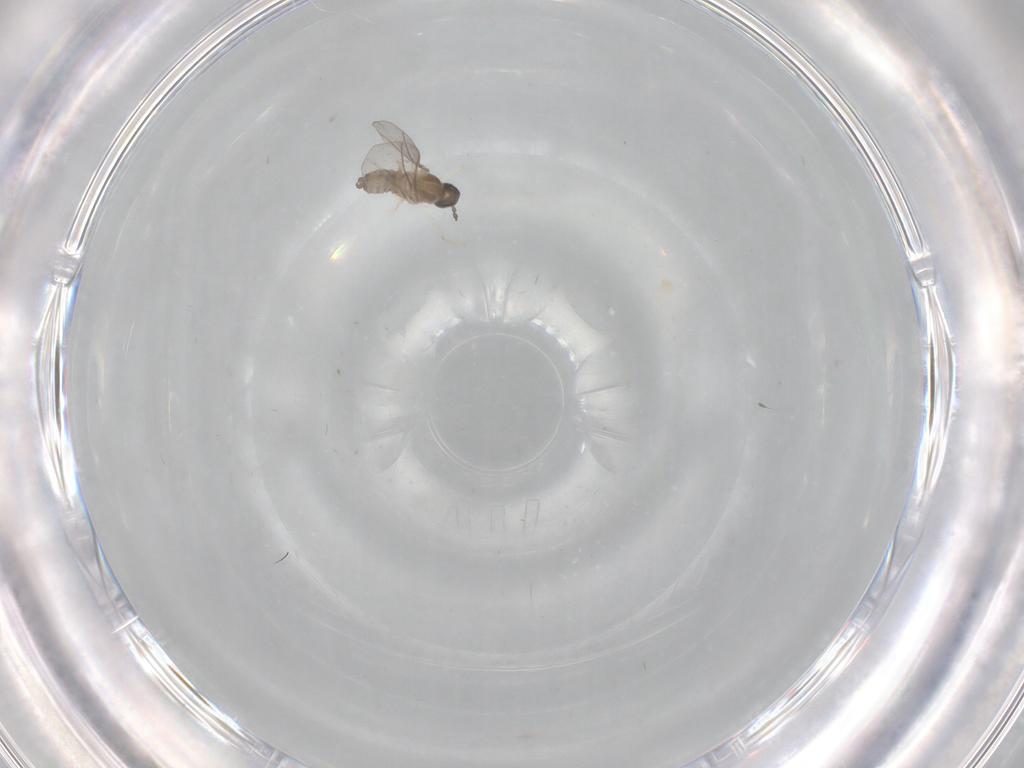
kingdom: Animalia
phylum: Arthropoda
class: Insecta
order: Diptera
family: Cecidomyiidae
